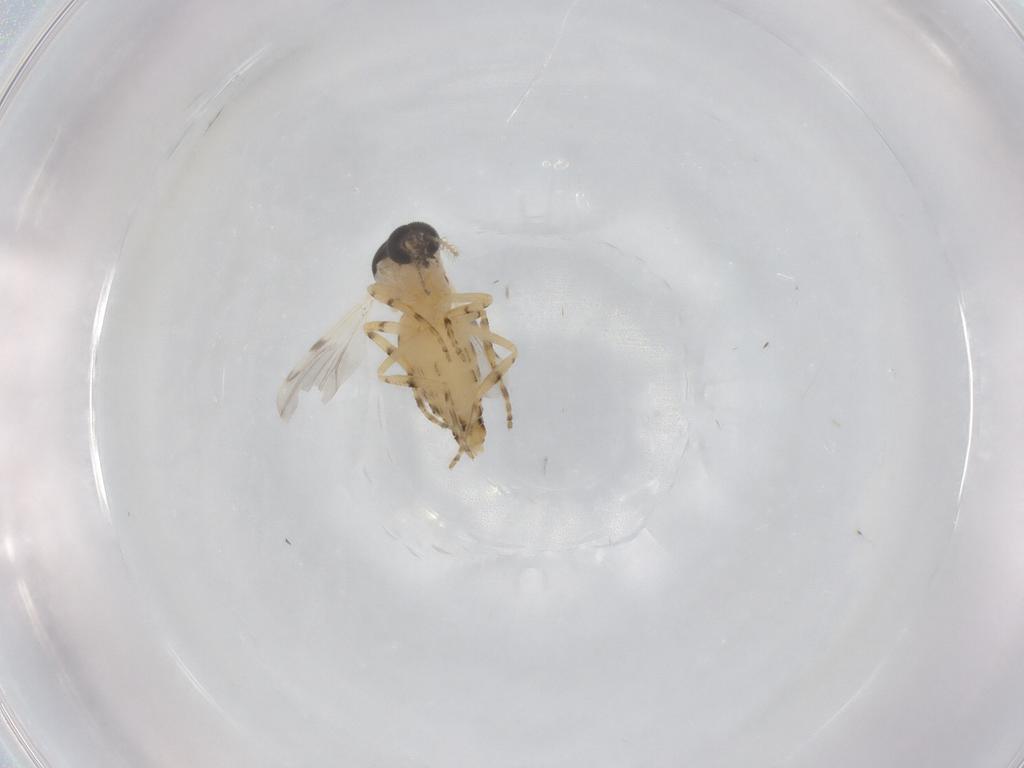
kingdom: Animalia
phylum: Arthropoda
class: Insecta
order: Diptera
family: Ceratopogonidae
